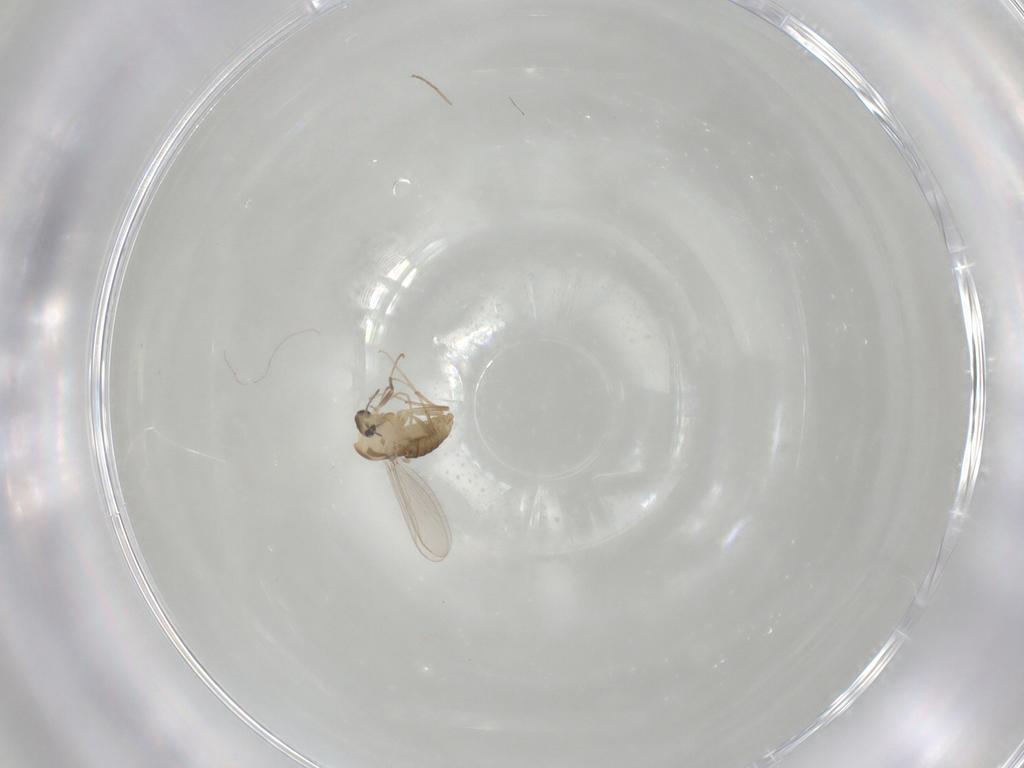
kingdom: Animalia
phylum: Arthropoda
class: Insecta
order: Diptera
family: Chironomidae
